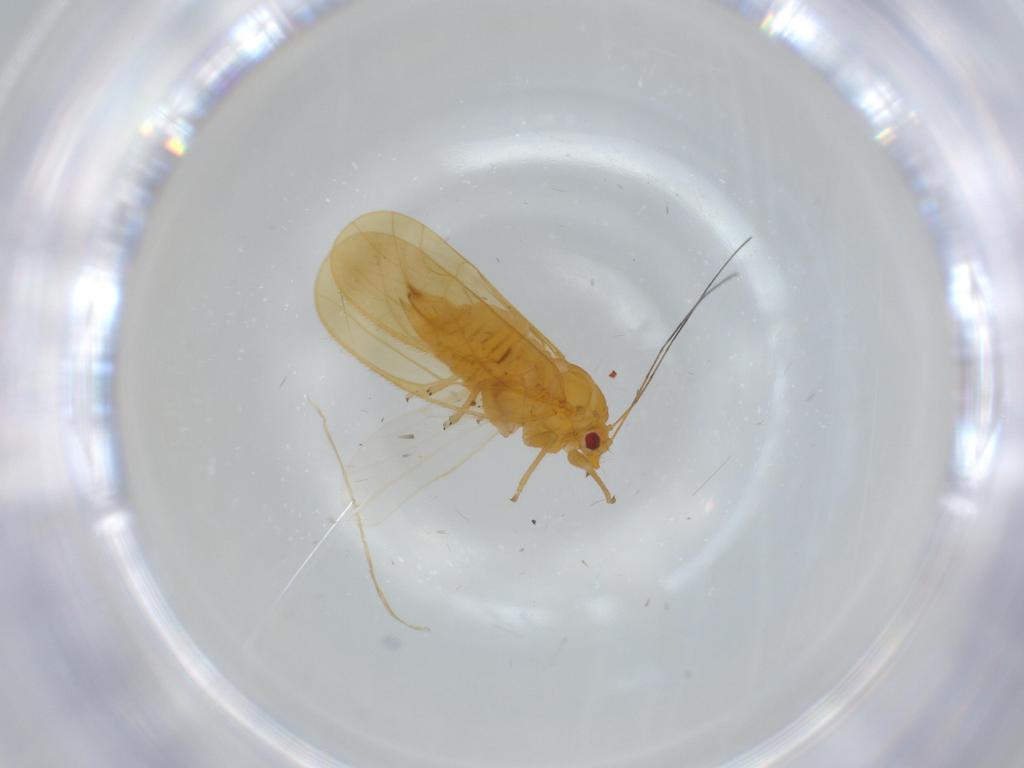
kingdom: Animalia
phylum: Arthropoda
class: Insecta
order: Hemiptera
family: Psyllidae
